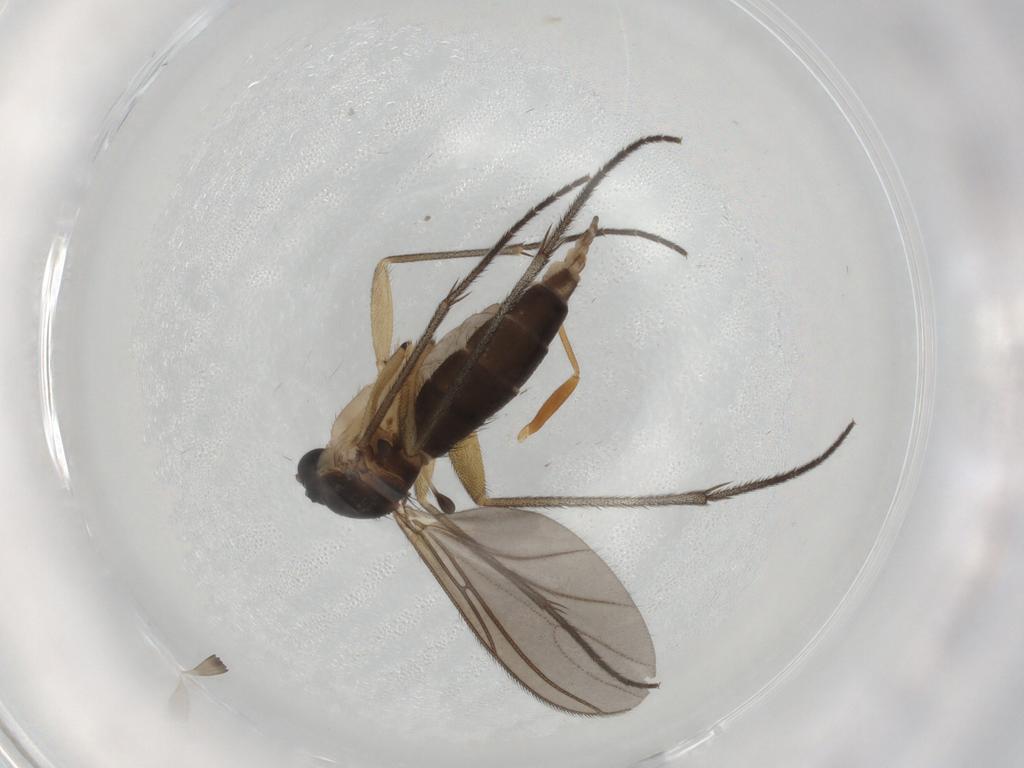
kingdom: Animalia
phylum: Arthropoda
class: Insecta
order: Diptera
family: Sciaridae
